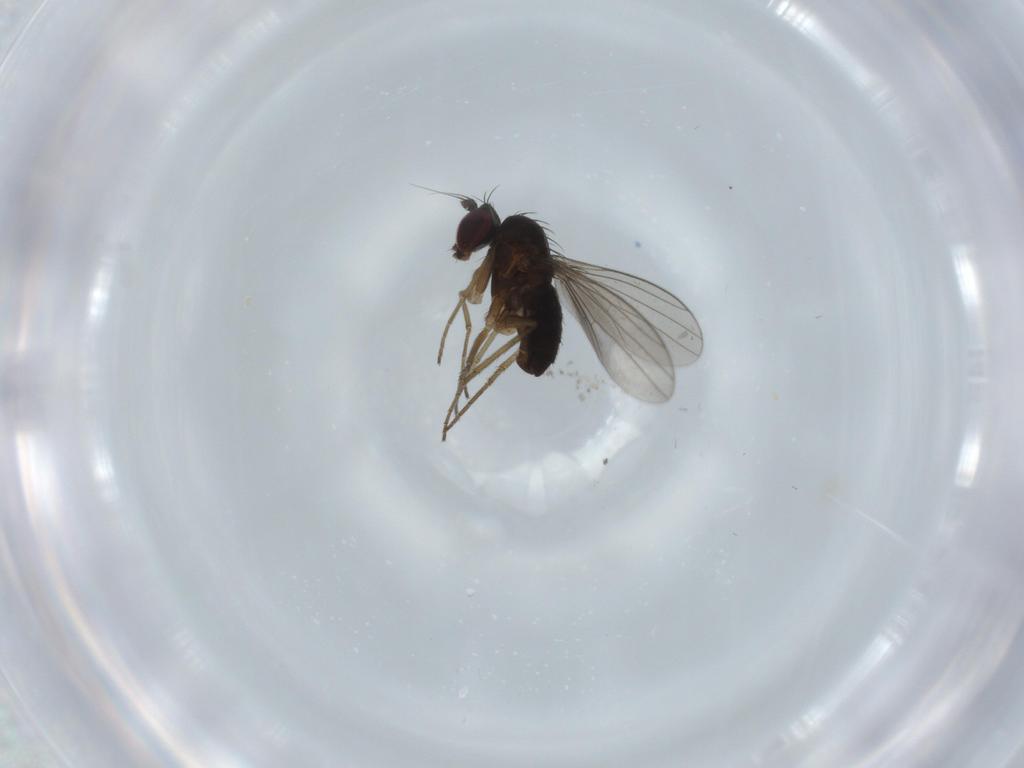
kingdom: Animalia
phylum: Arthropoda
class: Insecta
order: Diptera
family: Dolichopodidae
